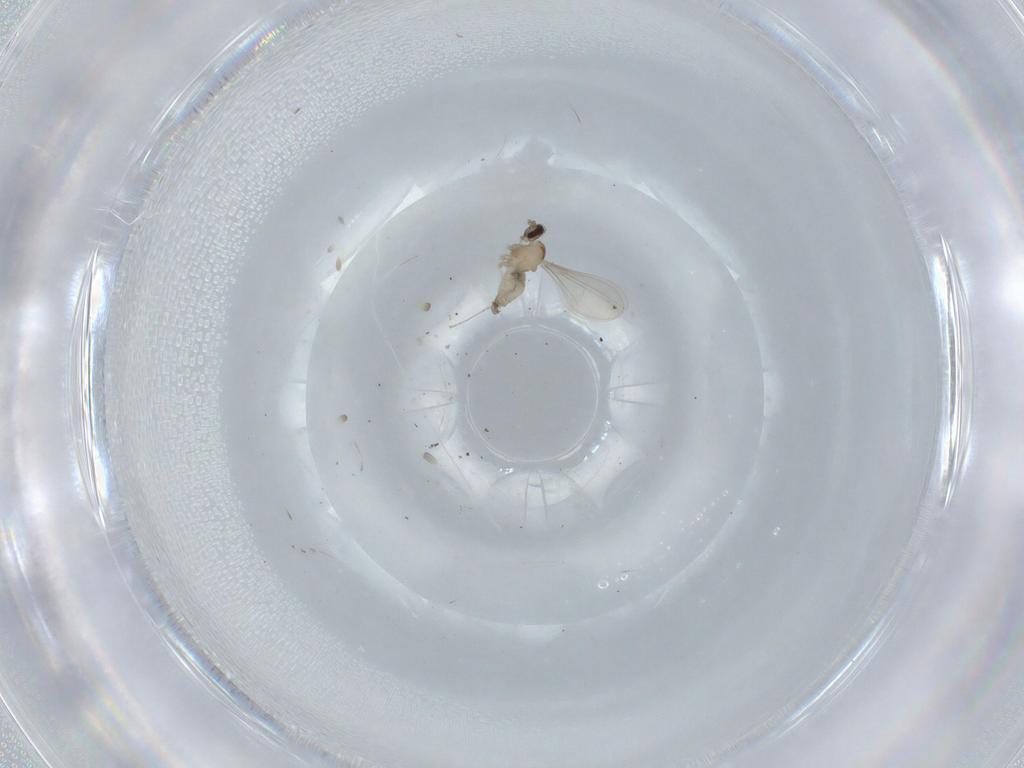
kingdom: Animalia
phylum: Arthropoda
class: Insecta
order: Diptera
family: Cecidomyiidae
